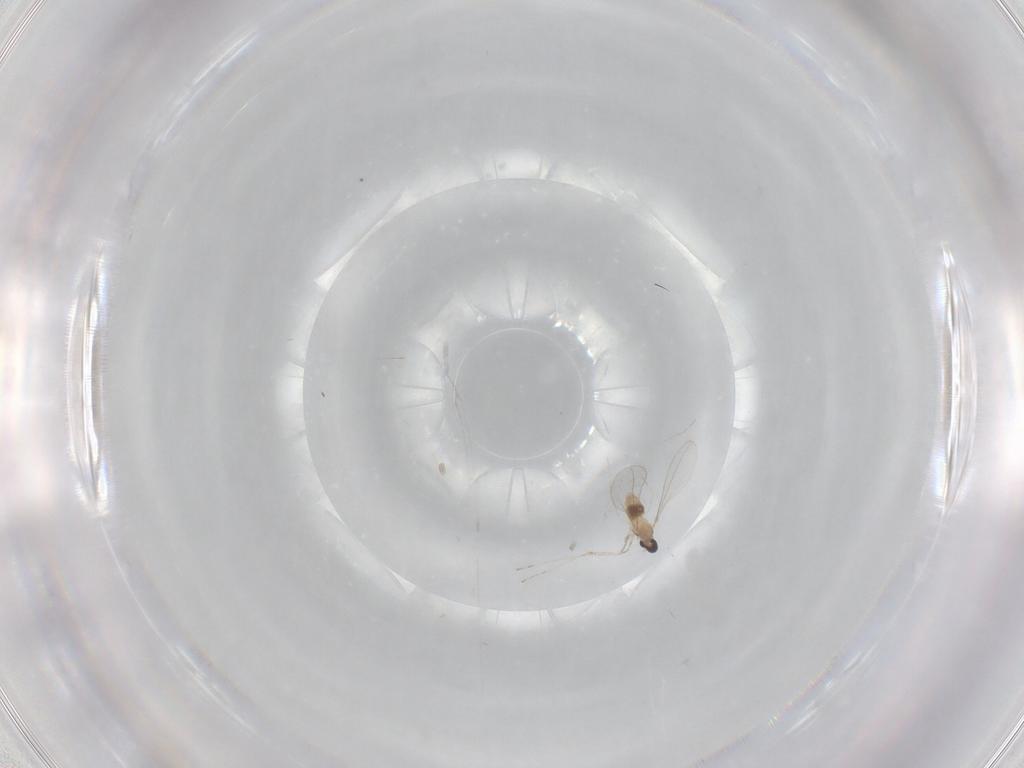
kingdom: Animalia
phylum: Arthropoda
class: Insecta
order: Diptera
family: Cecidomyiidae
